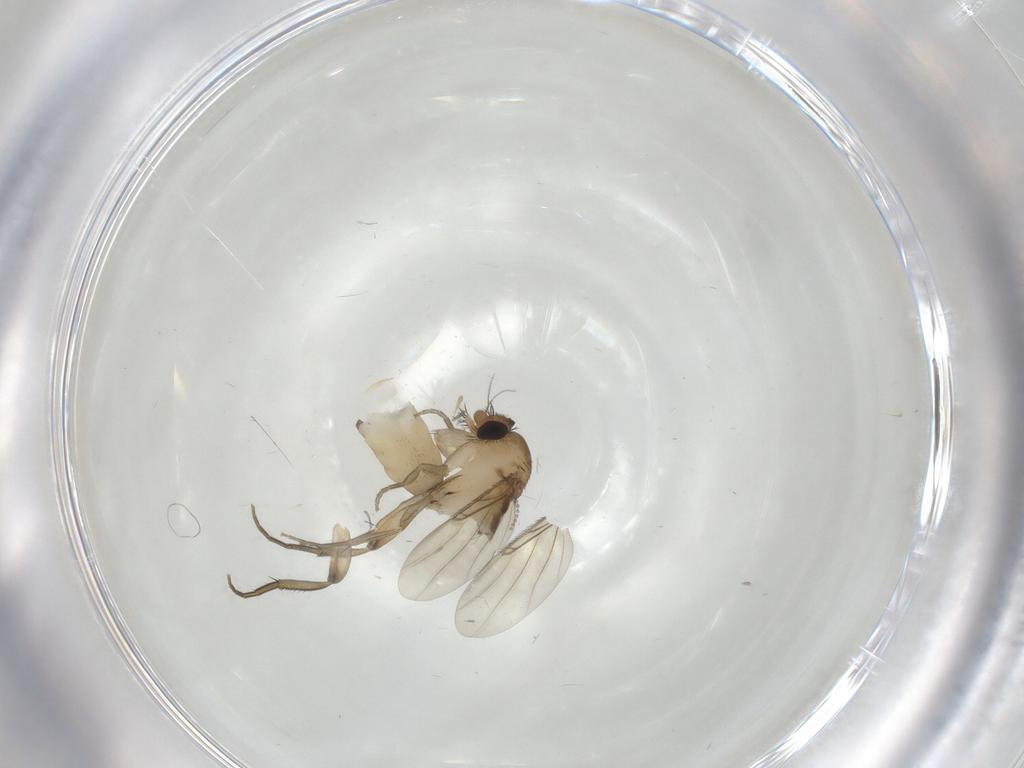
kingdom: Animalia
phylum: Arthropoda
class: Insecta
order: Diptera
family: Phoridae
